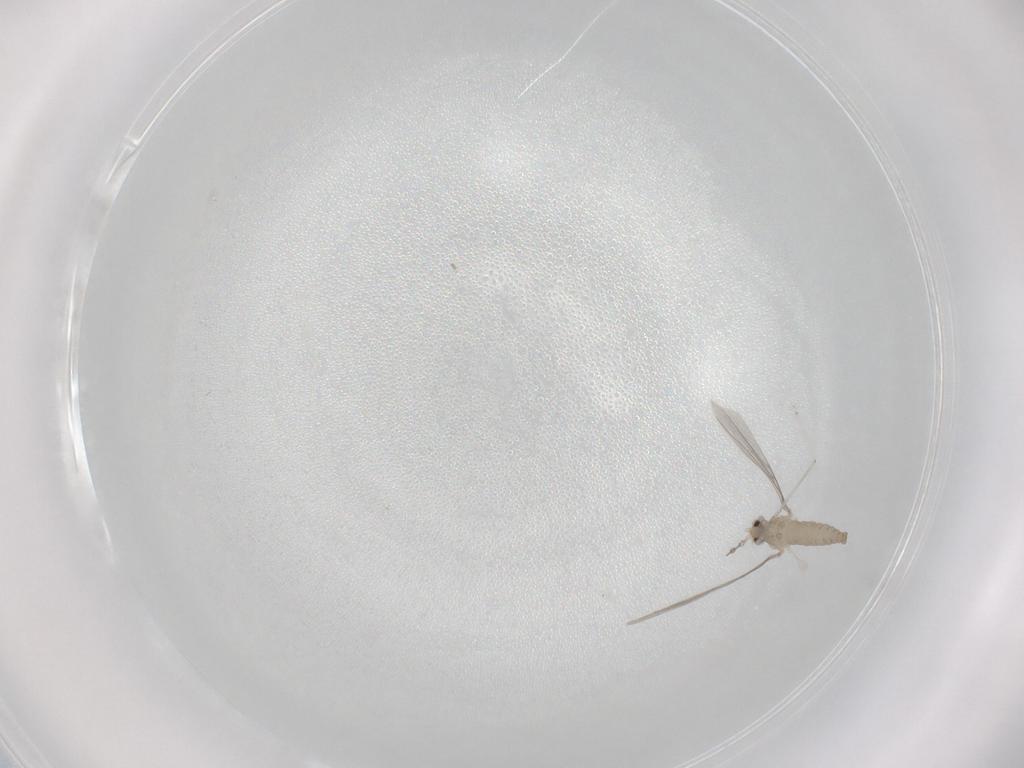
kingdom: Animalia
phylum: Arthropoda
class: Insecta
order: Diptera
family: Cecidomyiidae
